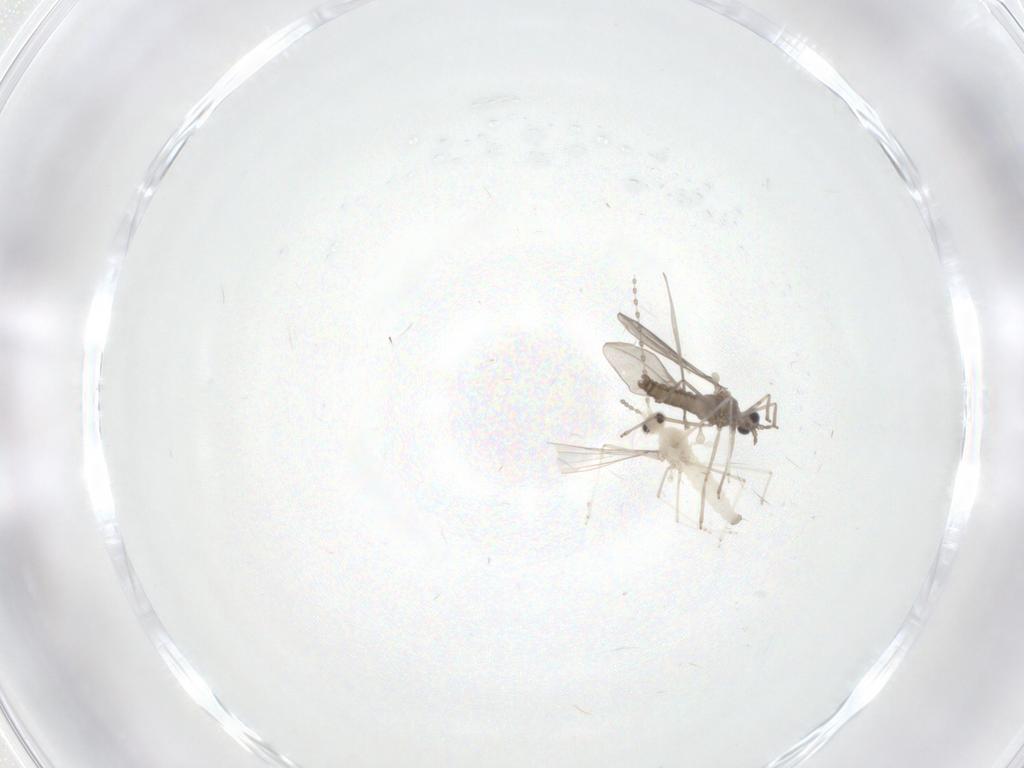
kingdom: Animalia
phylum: Arthropoda
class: Insecta
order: Diptera
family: Cecidomyiidae
